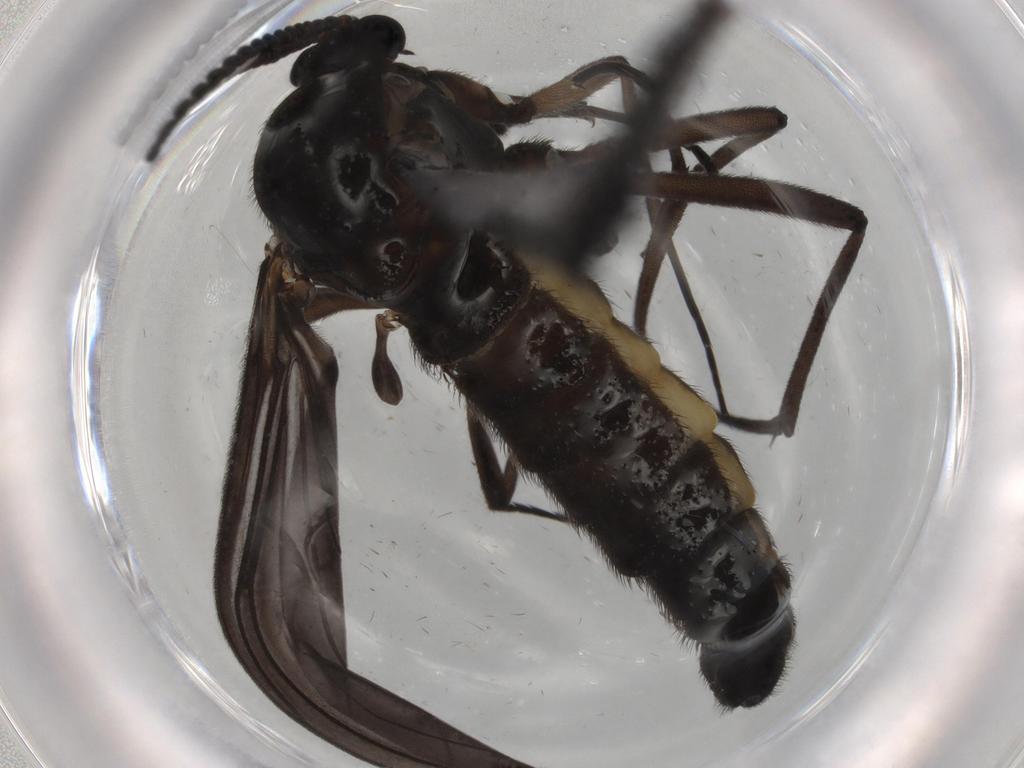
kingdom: Animalia
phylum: Arthropoda
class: Insecta
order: Diptera
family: Sciaridae
